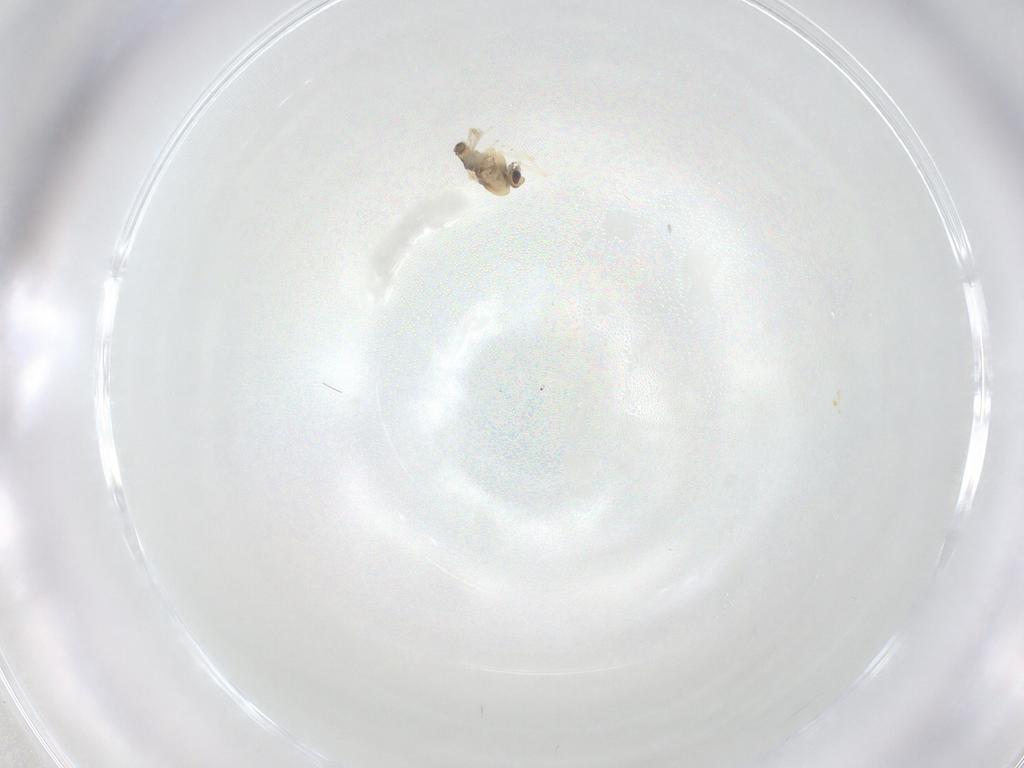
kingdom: Animalia
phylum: Arthropoda
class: Insecta
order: Diptera
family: Chironomidae
